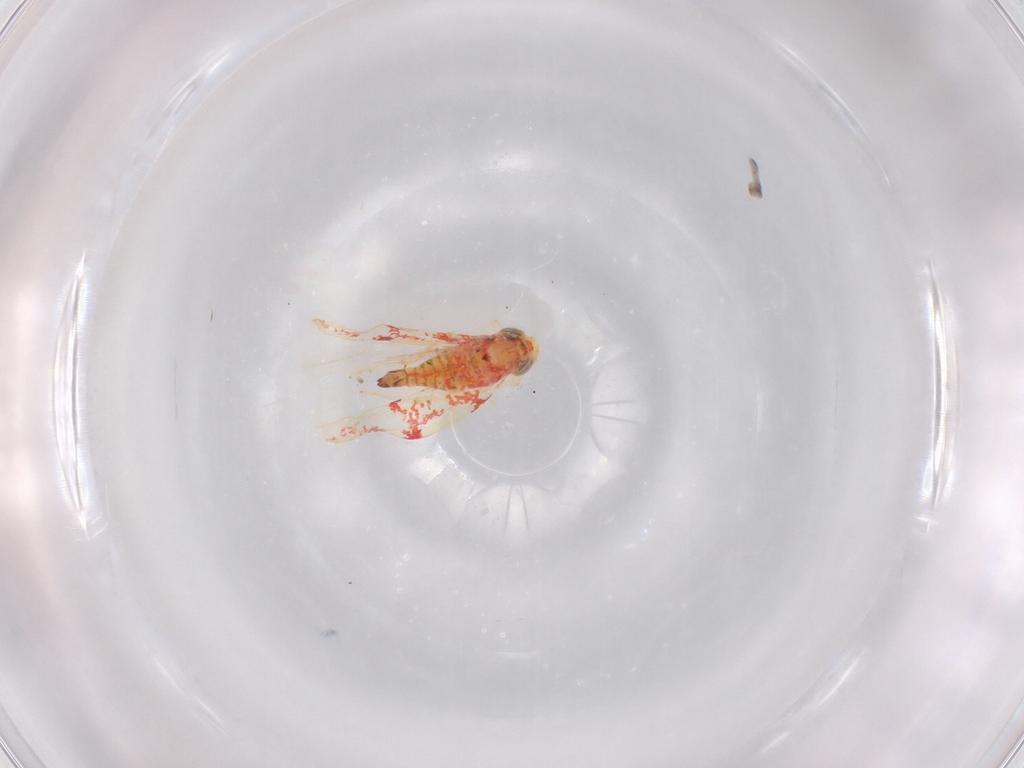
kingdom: Animalia
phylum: Arthropoda
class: Insecta
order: Hemiptera
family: Cicadellidae
